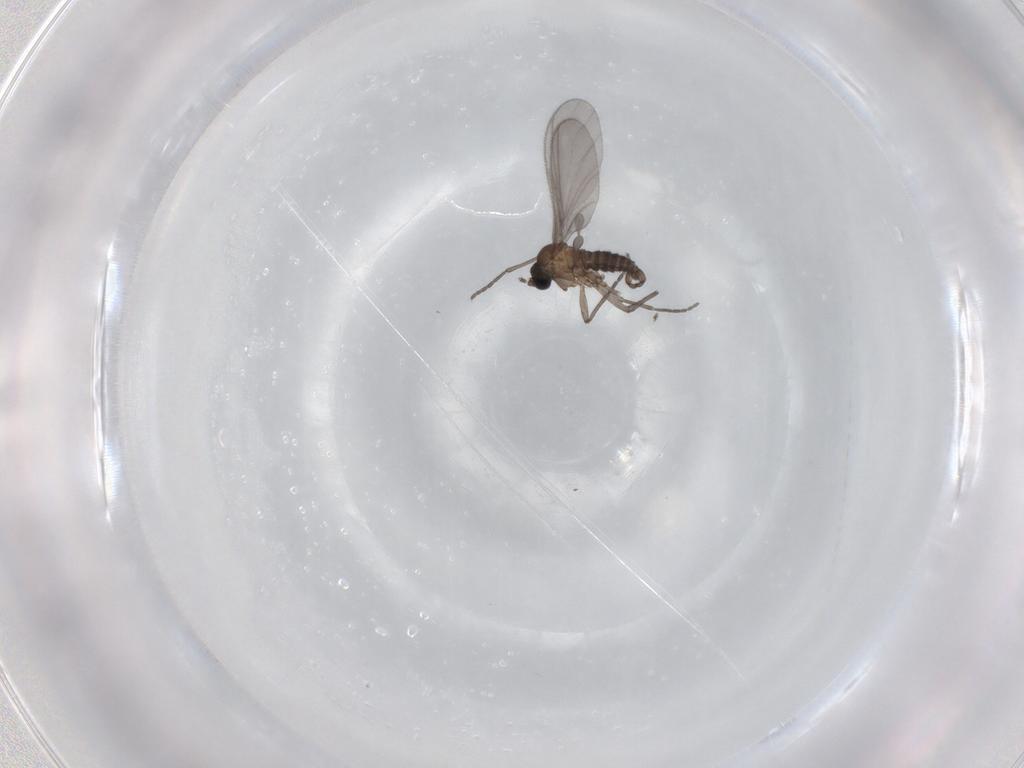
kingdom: Animalia
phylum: Arthropoda
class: Insecta
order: Diptera
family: Sciaridae
